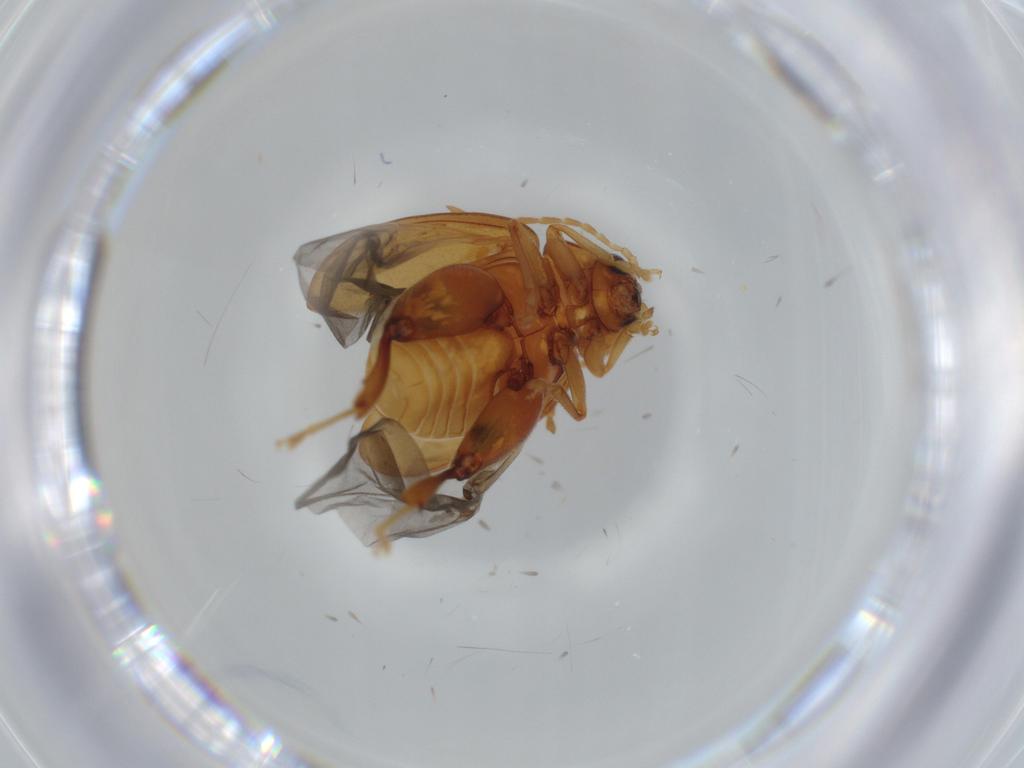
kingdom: Animalia
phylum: Arthropoda
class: Insecta
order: Coleoptera
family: Chrysomelidae
